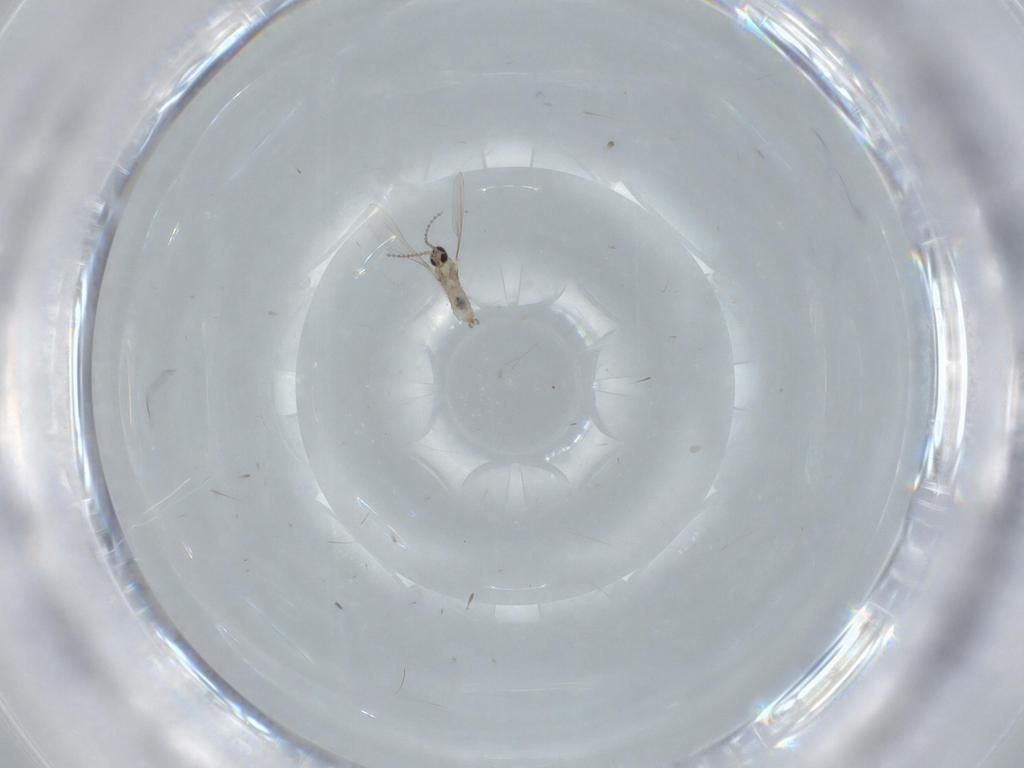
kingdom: Animalia
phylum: Arthropoda
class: Insecta
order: Diptera
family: Cecidomyiidae
